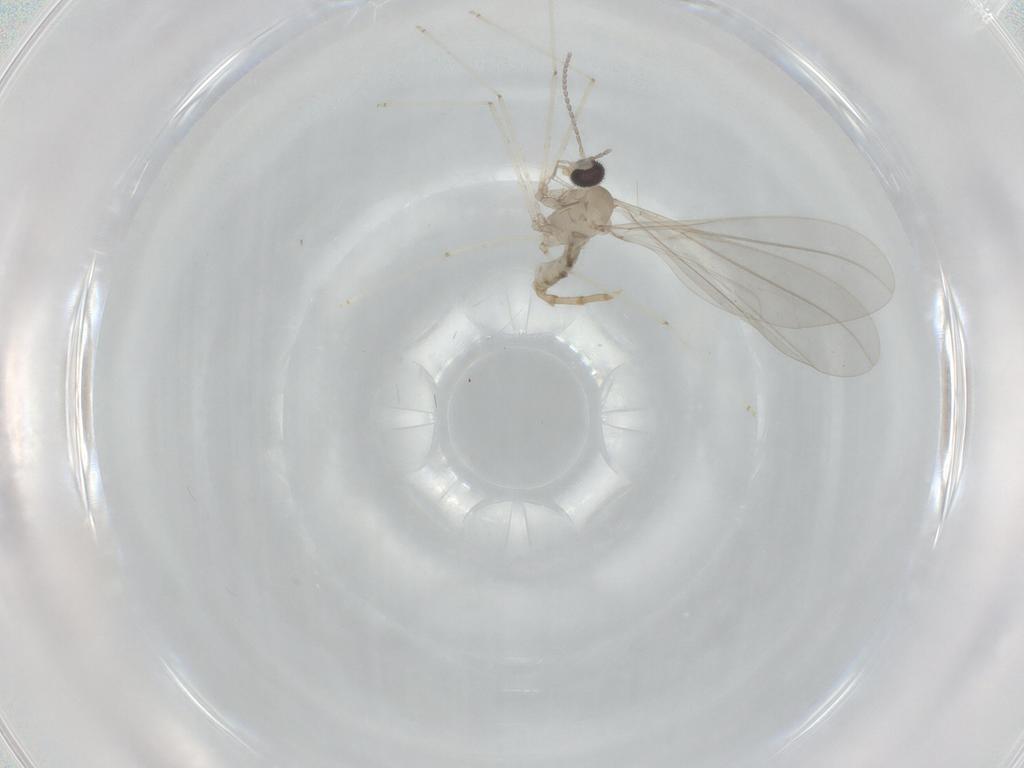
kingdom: Animalia
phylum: Arthropoda
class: Insecta
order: Diptera
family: Cecidomyiidae
